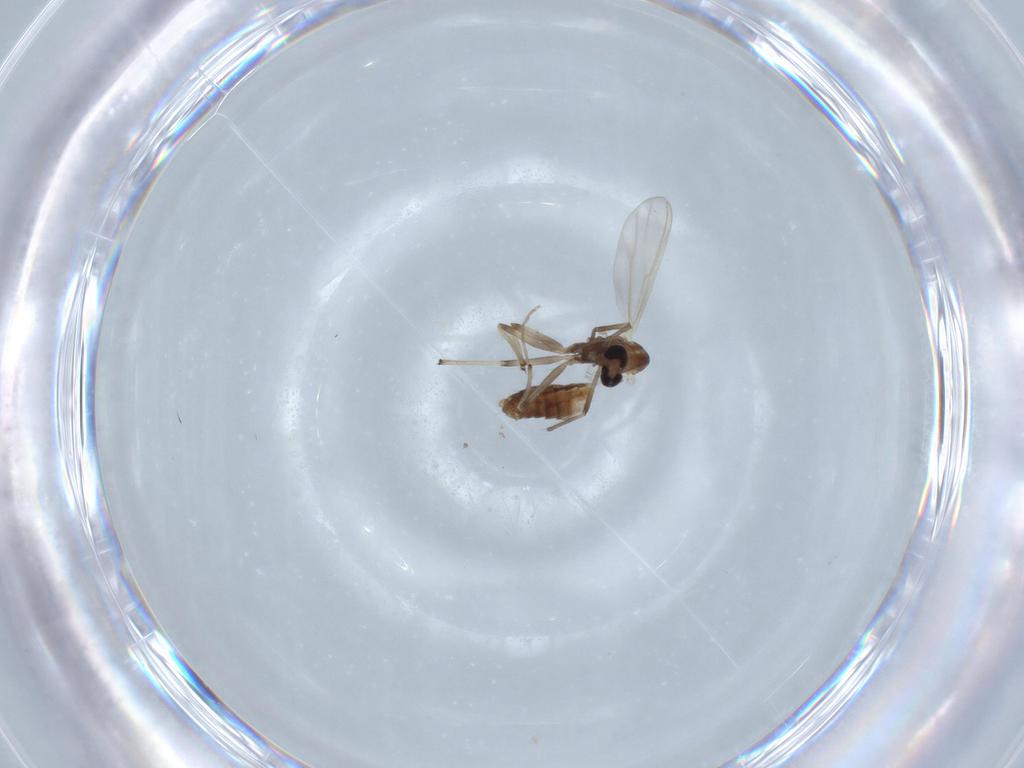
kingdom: Animalia
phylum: Arthropoda
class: Insecta
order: Diptera
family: Chironomidae
